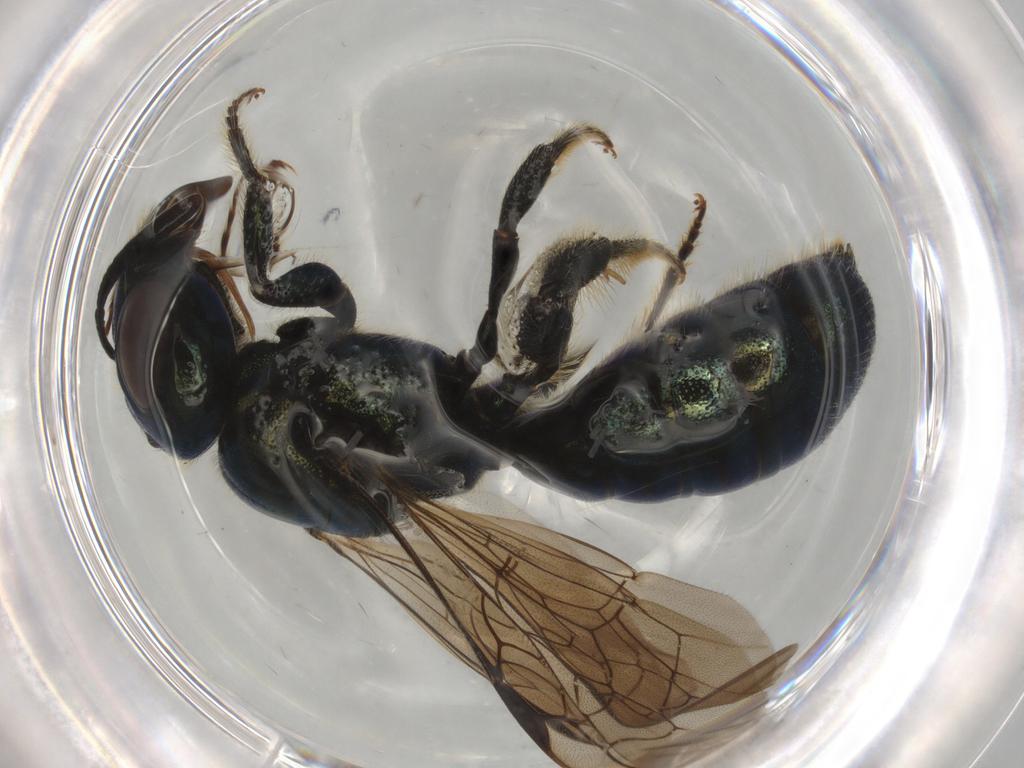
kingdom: Animalia
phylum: Arthropoda
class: Insecta
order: Hymenoptera
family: Apidae
